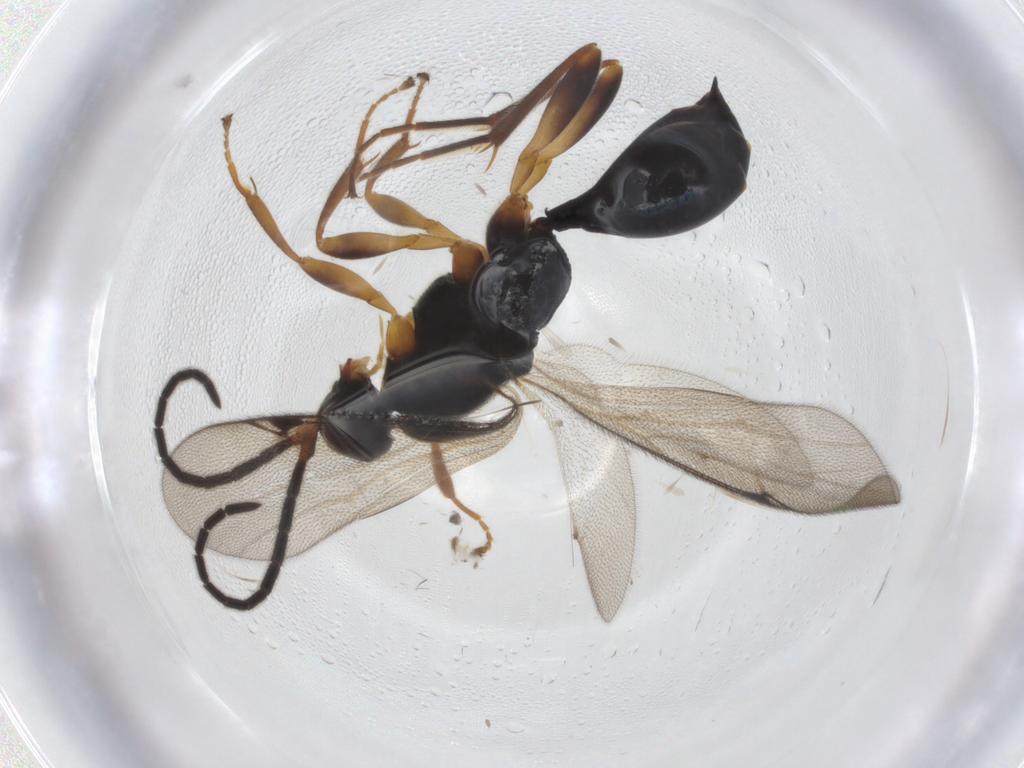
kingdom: Animalia
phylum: Arthropoda
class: Insecta
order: Hymenoptera
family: Proctotrupidae
